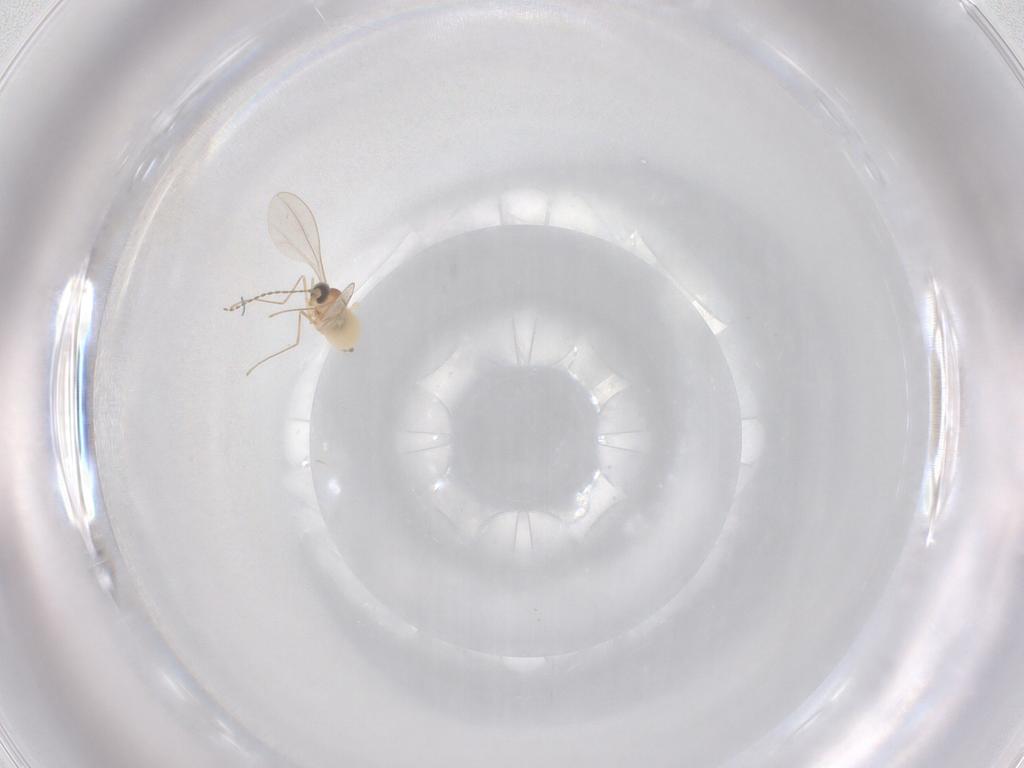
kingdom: Animalia
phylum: Arthropoda
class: Insecta
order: Diptera
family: Cecidomyiidae
